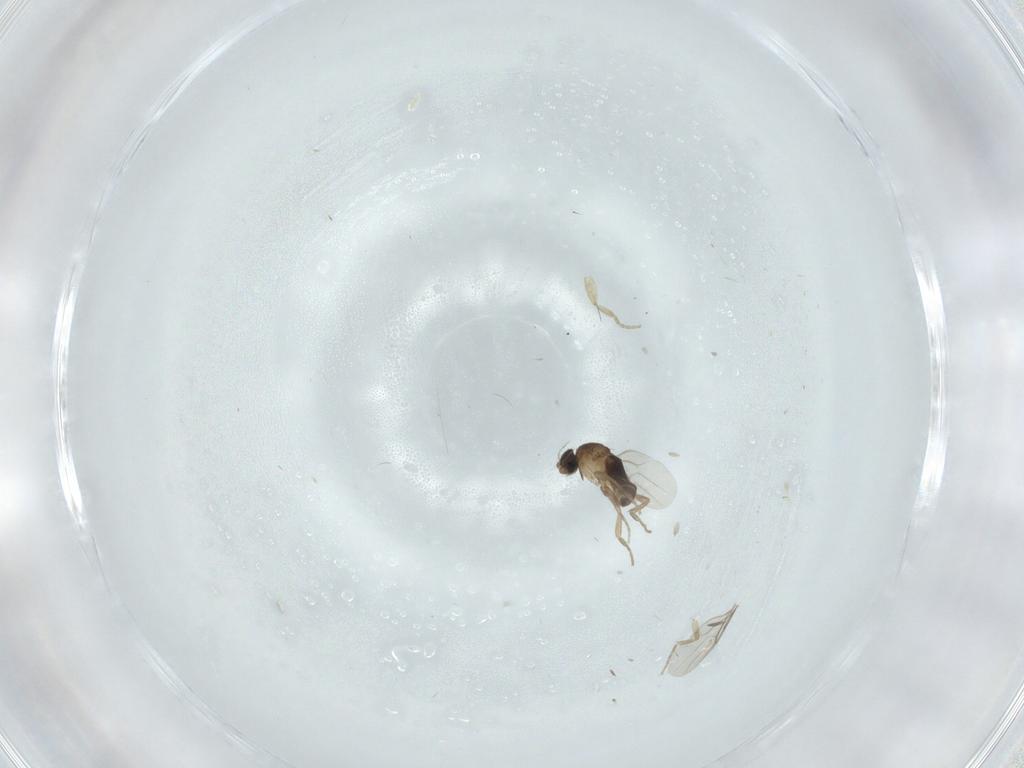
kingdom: Animalia
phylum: Arthropoda
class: Insecta
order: Diptera
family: Phoridae
